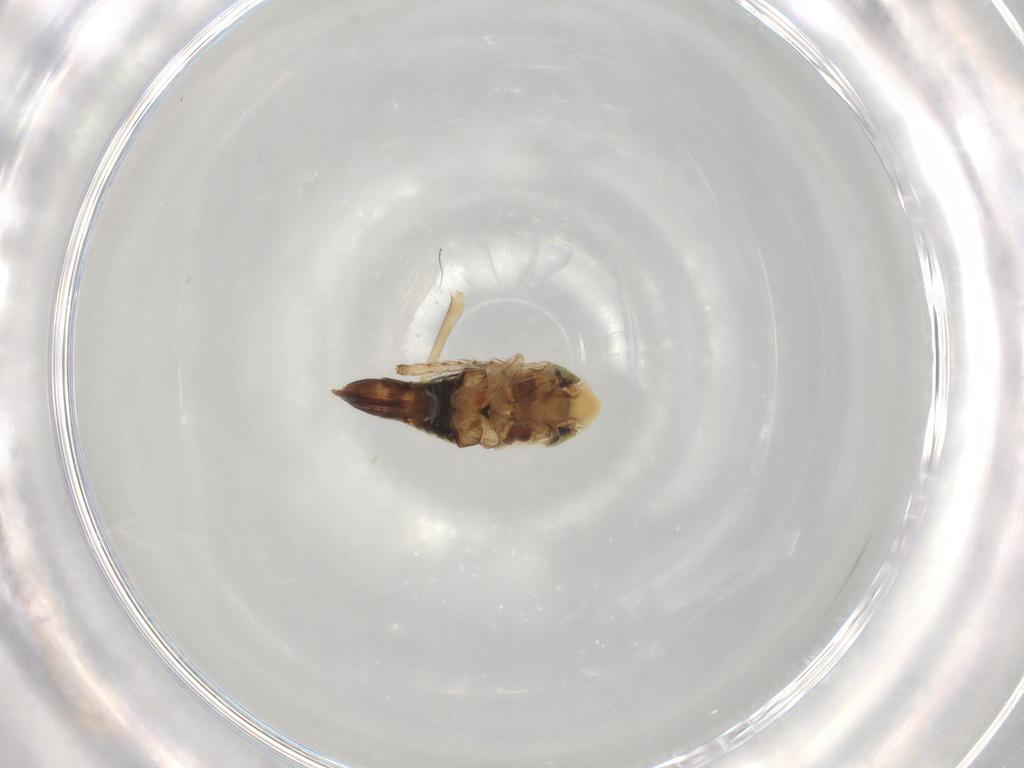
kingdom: Animalia
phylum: Arthropoda
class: Insecta
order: Hemiptera
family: Cicadellidae
